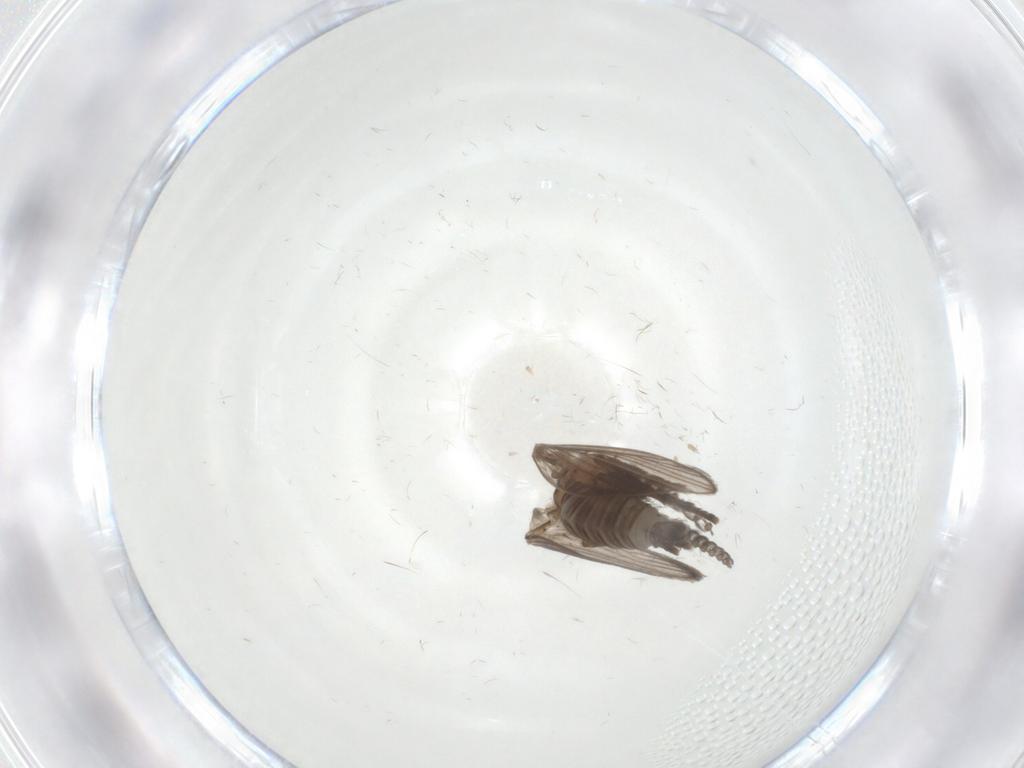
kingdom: Animalia
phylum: Arthropoda
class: Insecta
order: Diptera
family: Psychodidae
